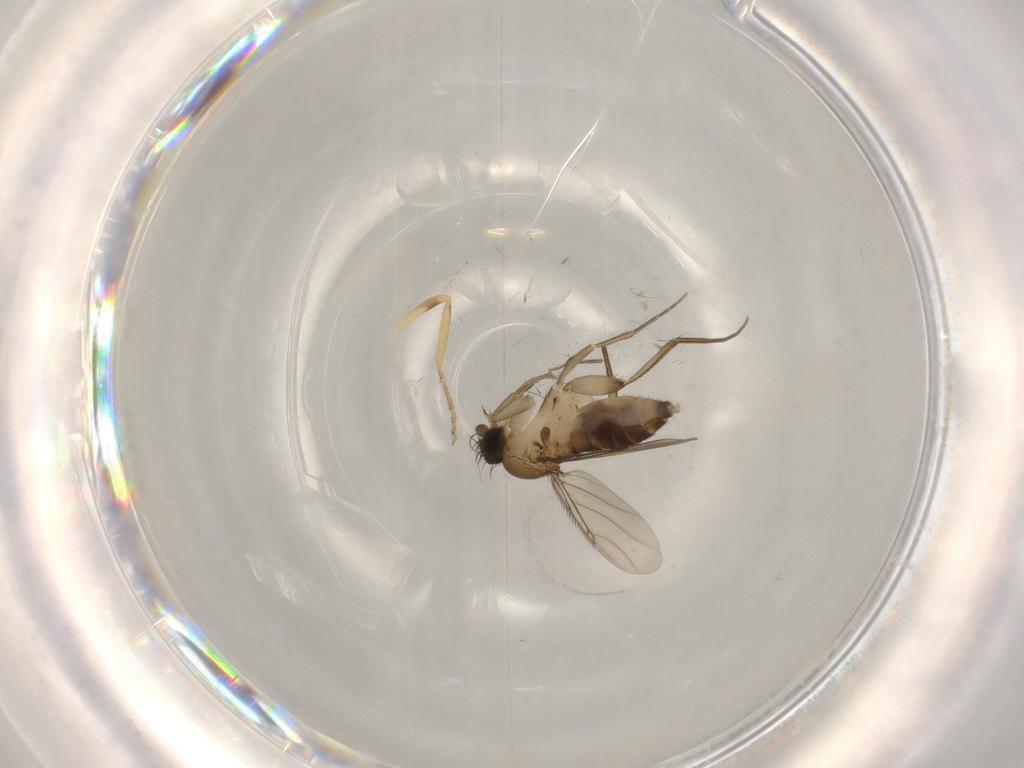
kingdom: Animalia
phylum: Arthropoda
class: Insecta
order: Diptera
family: Phoridae
